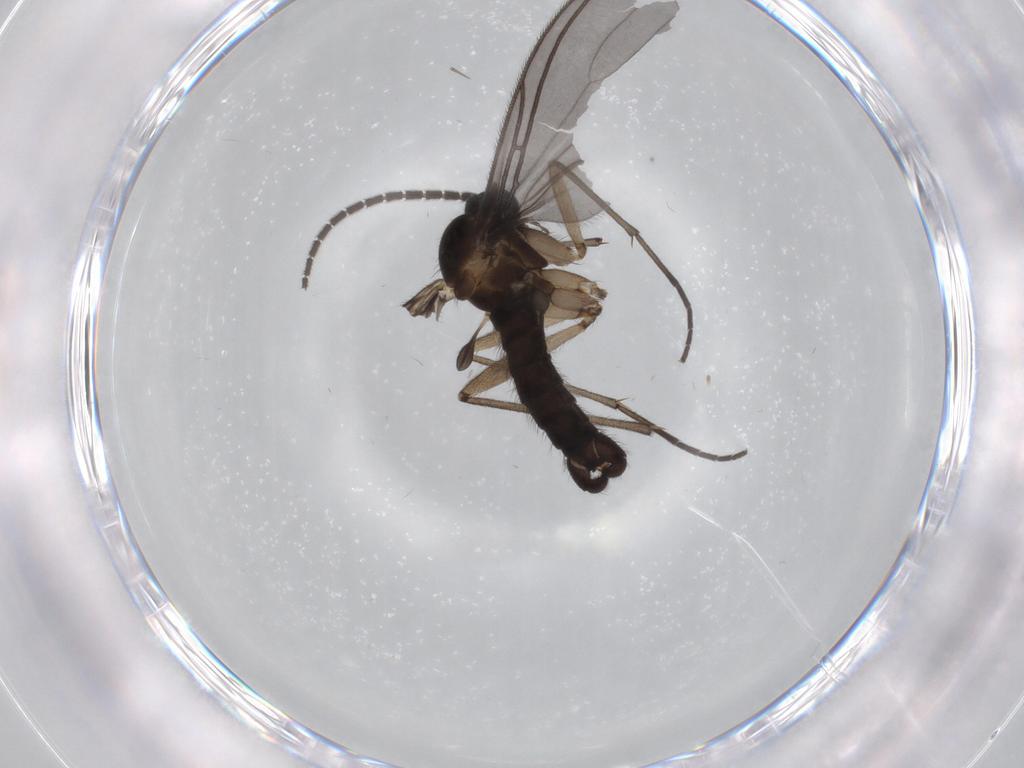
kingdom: Animalia
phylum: Arthropoda
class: Insecta
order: Diptera
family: Sciaridae
